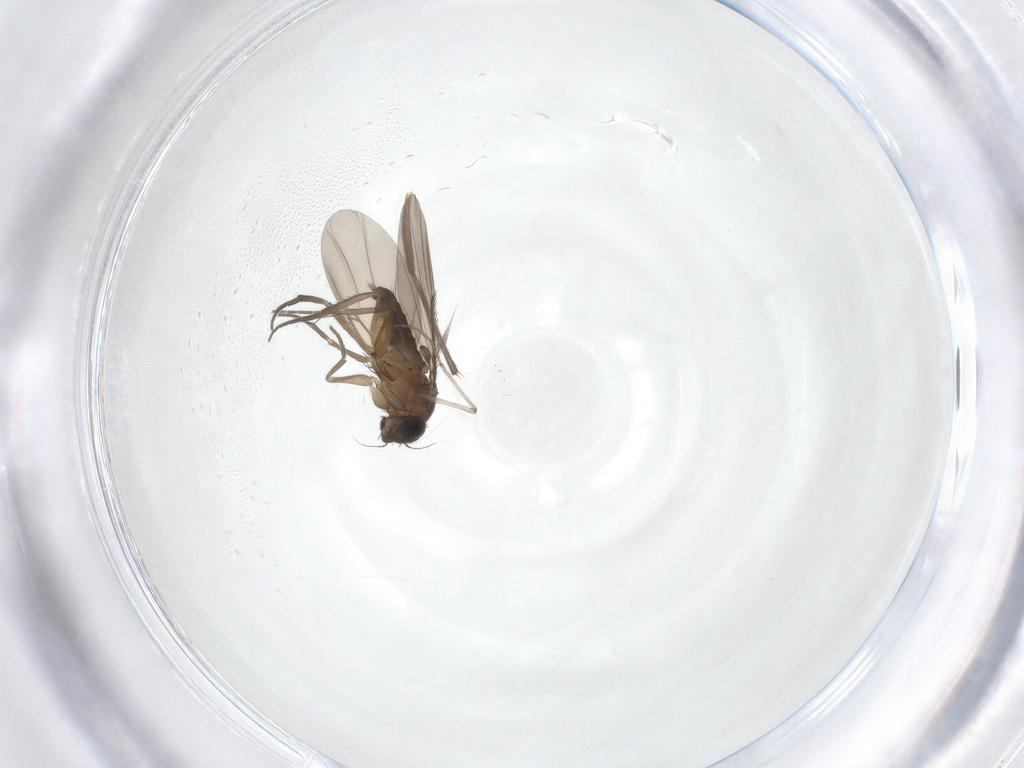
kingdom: Animalia
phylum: Arthropoda
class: Insecta
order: Diptera
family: Phoridae
